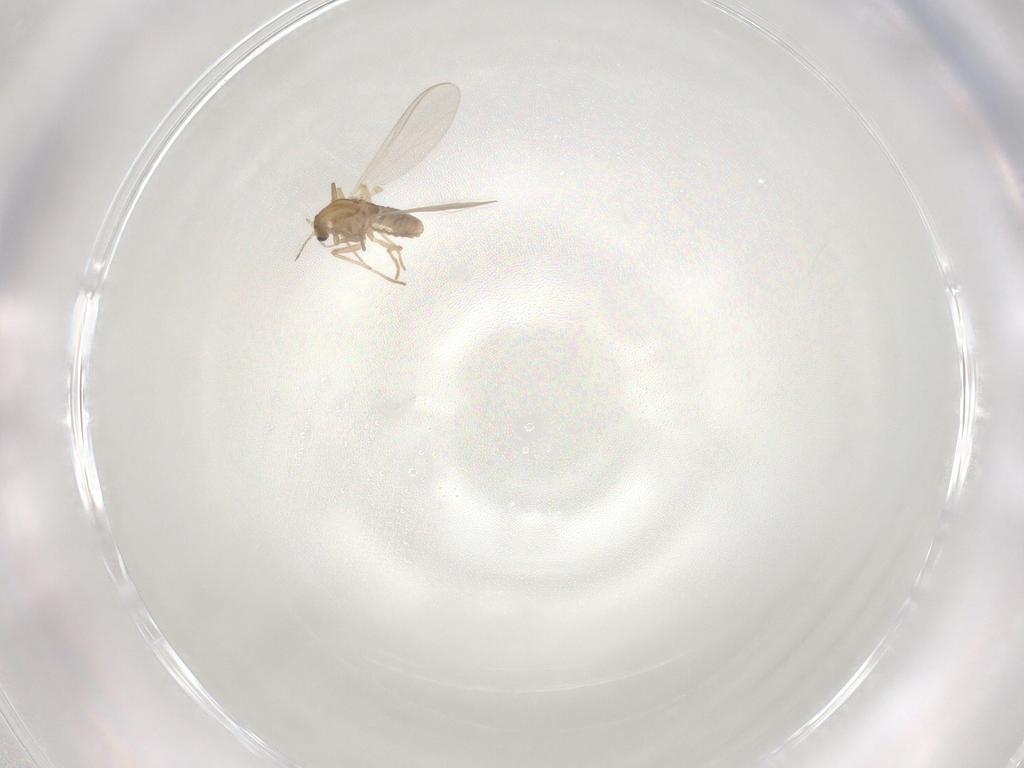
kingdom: Animalia
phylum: Arthropoda
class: Insecta
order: Diptera
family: Chironomidae
